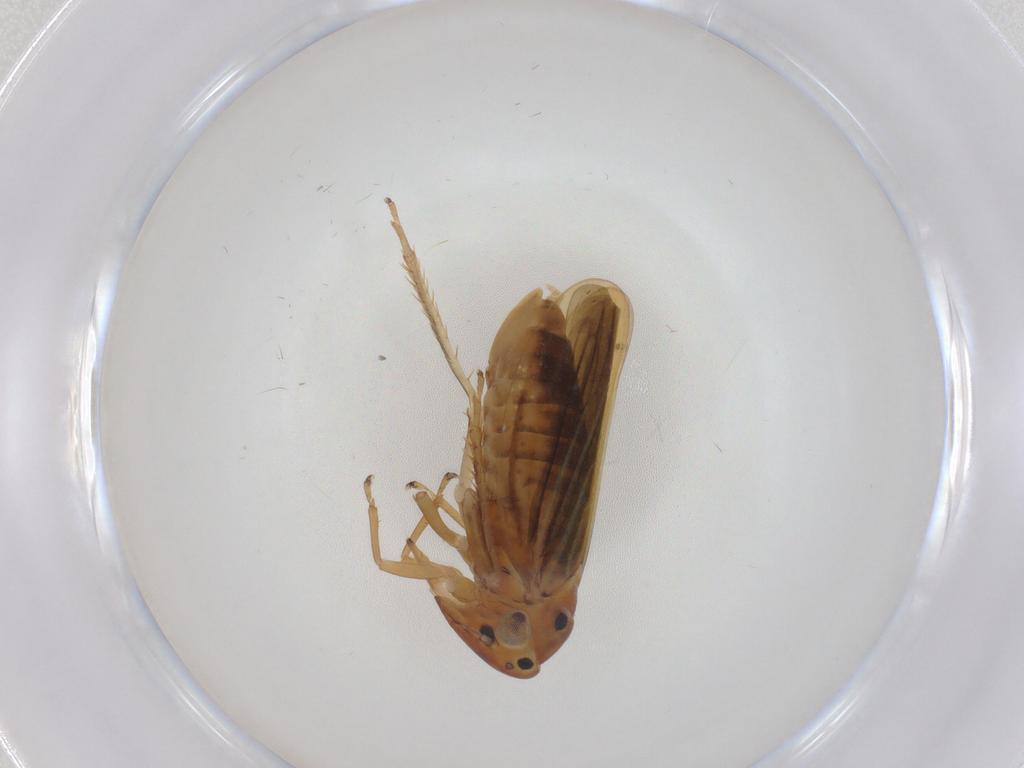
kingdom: Animalia
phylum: Arthropoda
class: Insecta
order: Hemiptera
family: Cicadellidae
